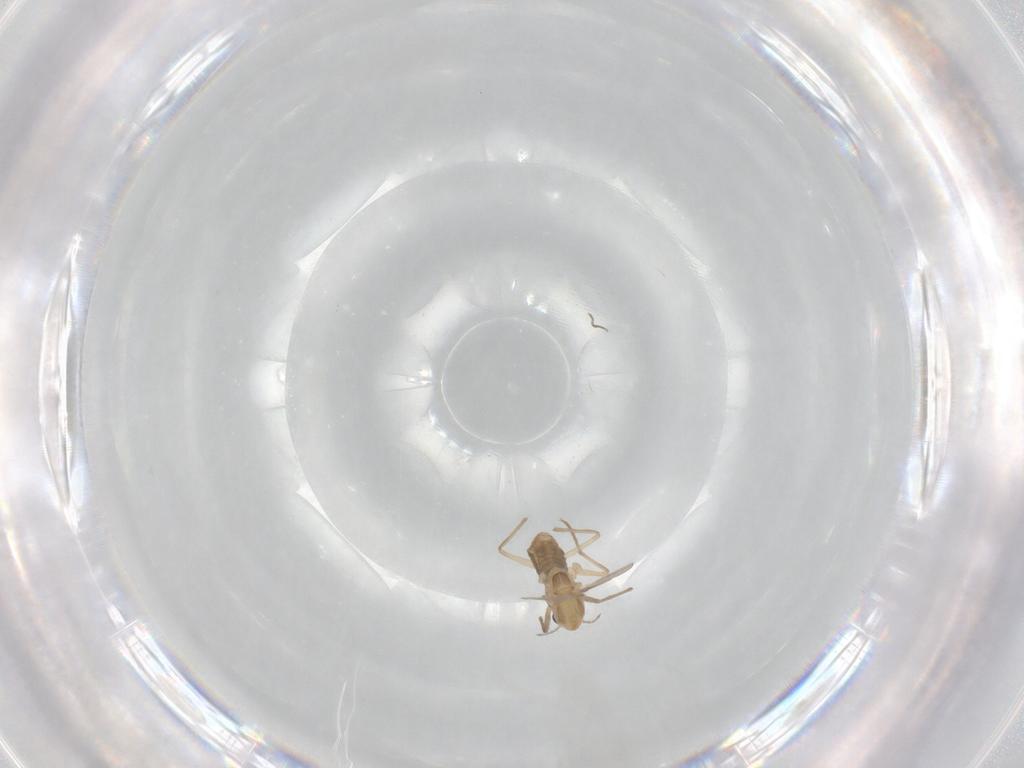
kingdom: Animalia
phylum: Arthropoda
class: Insecta
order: Diptera
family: Chironomidae
